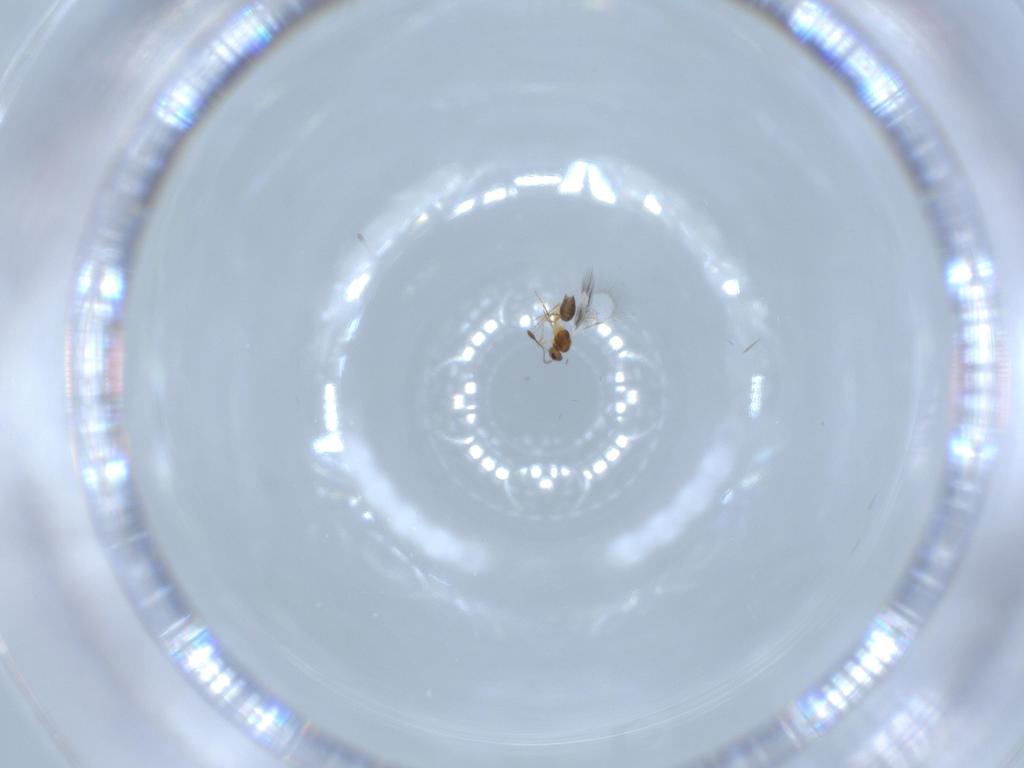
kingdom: Animalia
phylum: Arthropoda
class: Insecta
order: Hymenoptera
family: Mymarommatidae
